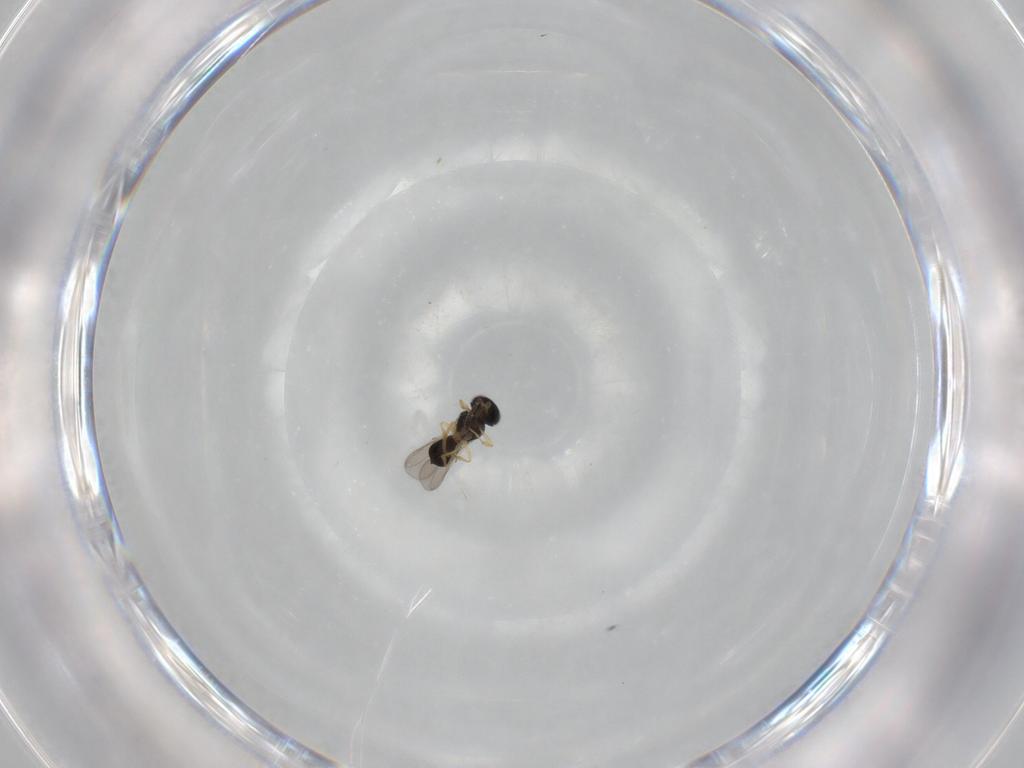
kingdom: Animalia
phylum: Arthropoda
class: Insecta
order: Hymenoptera
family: Scelionidae
